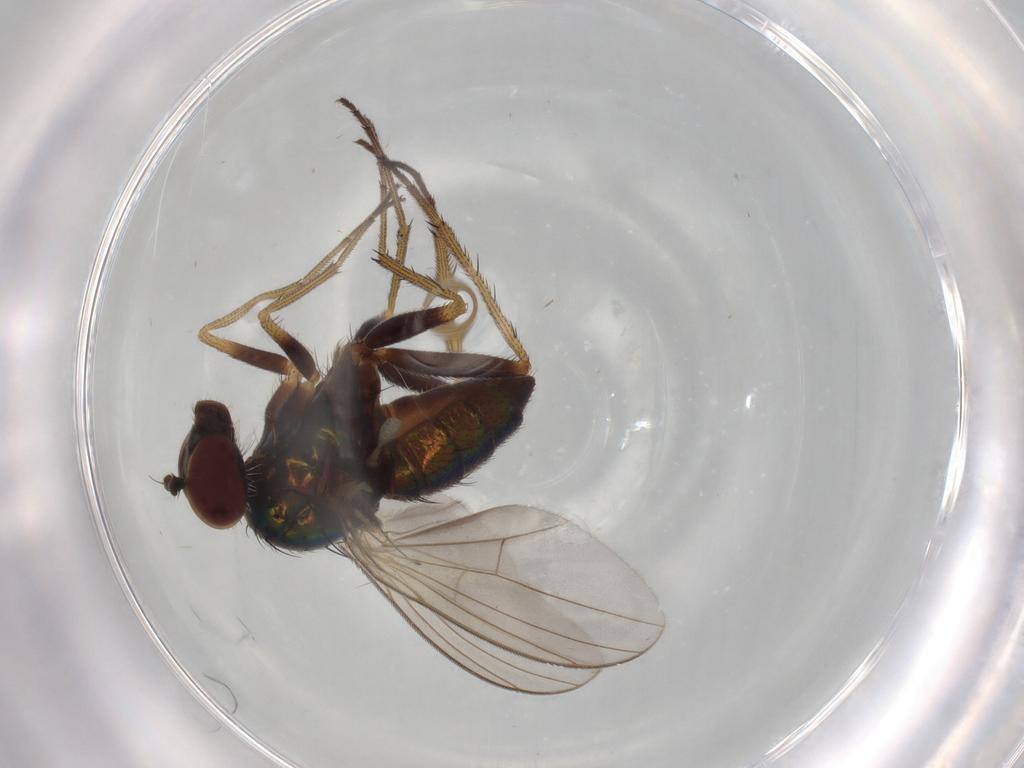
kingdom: Animalia
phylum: Arthropoda
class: Insecta
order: Diptera
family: Dolichopodidae
